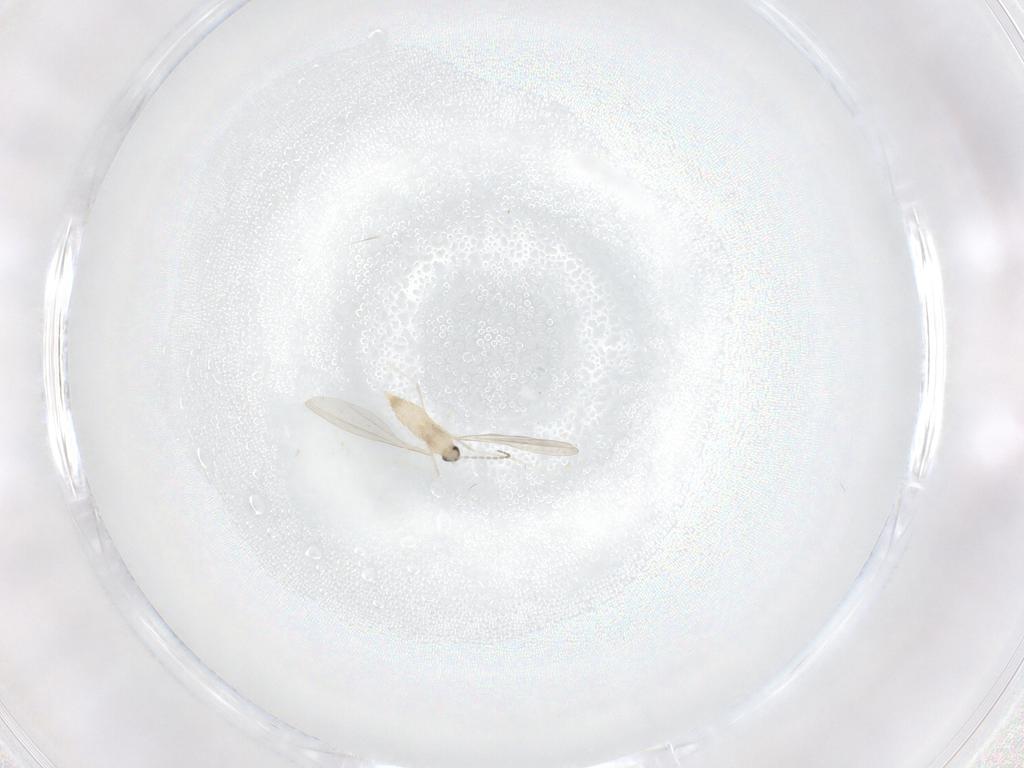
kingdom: Animalia
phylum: Arthropoda
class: Insecta
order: Diptera
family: Cecidomyiidae
